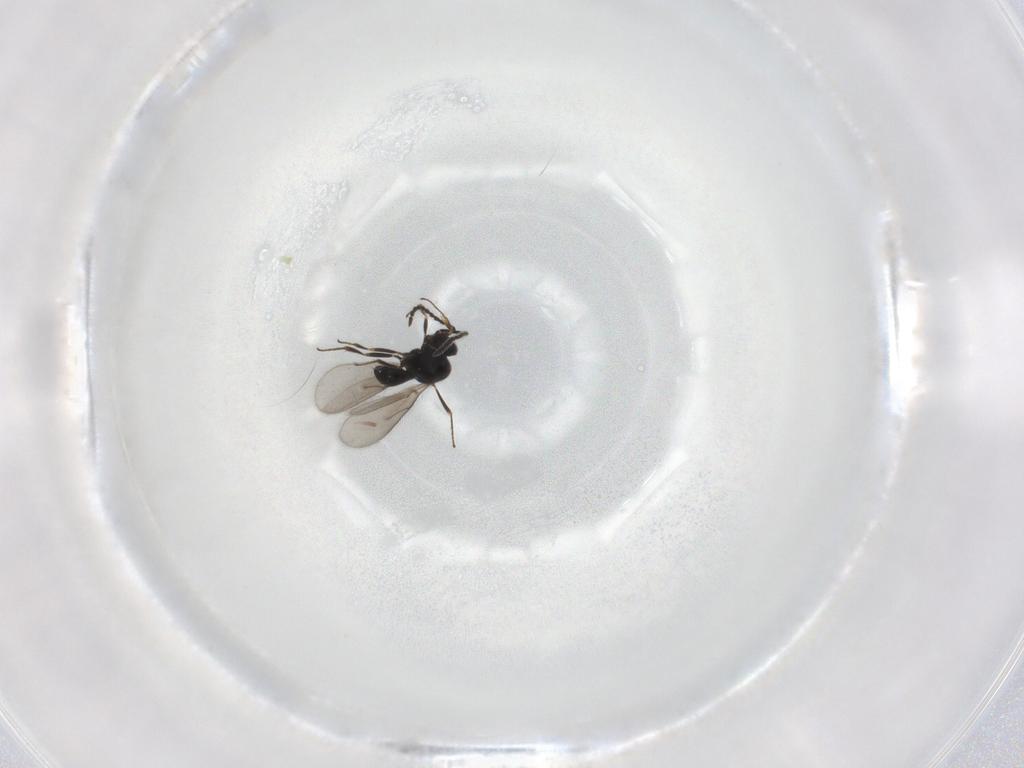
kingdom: Animalia
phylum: Arthropoda
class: Insecta
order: Hymenoptera
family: Scelionidae
